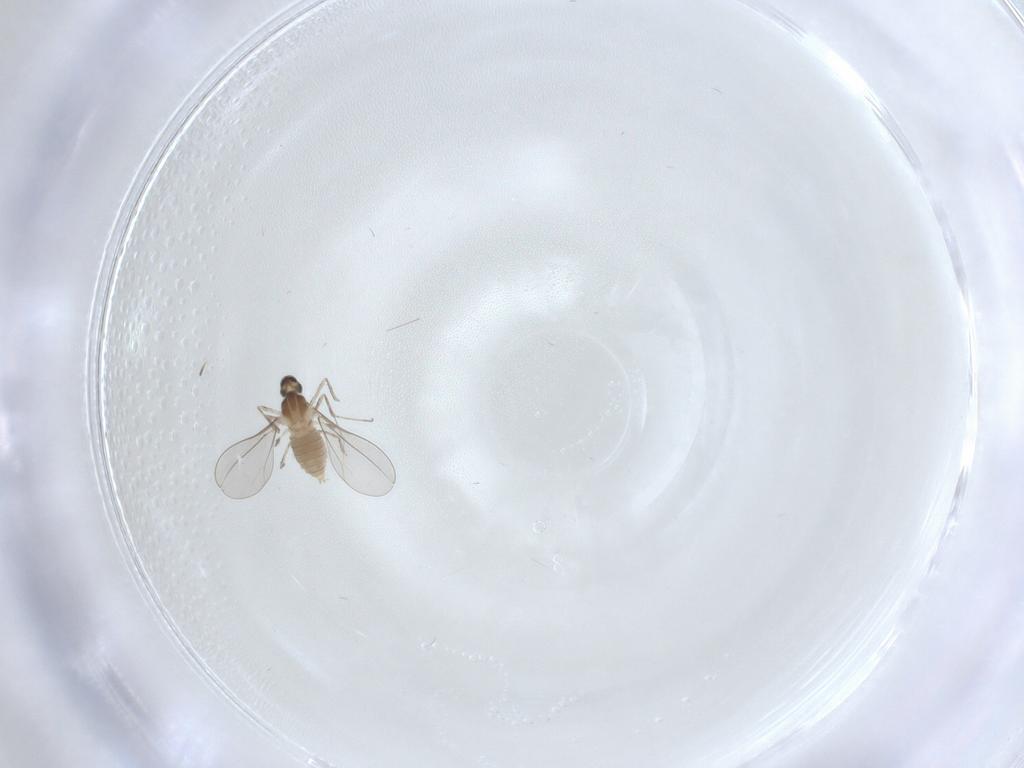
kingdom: Animalia
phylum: Arthropoda
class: Insecta
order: Diptera
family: Cecidomyiidae
